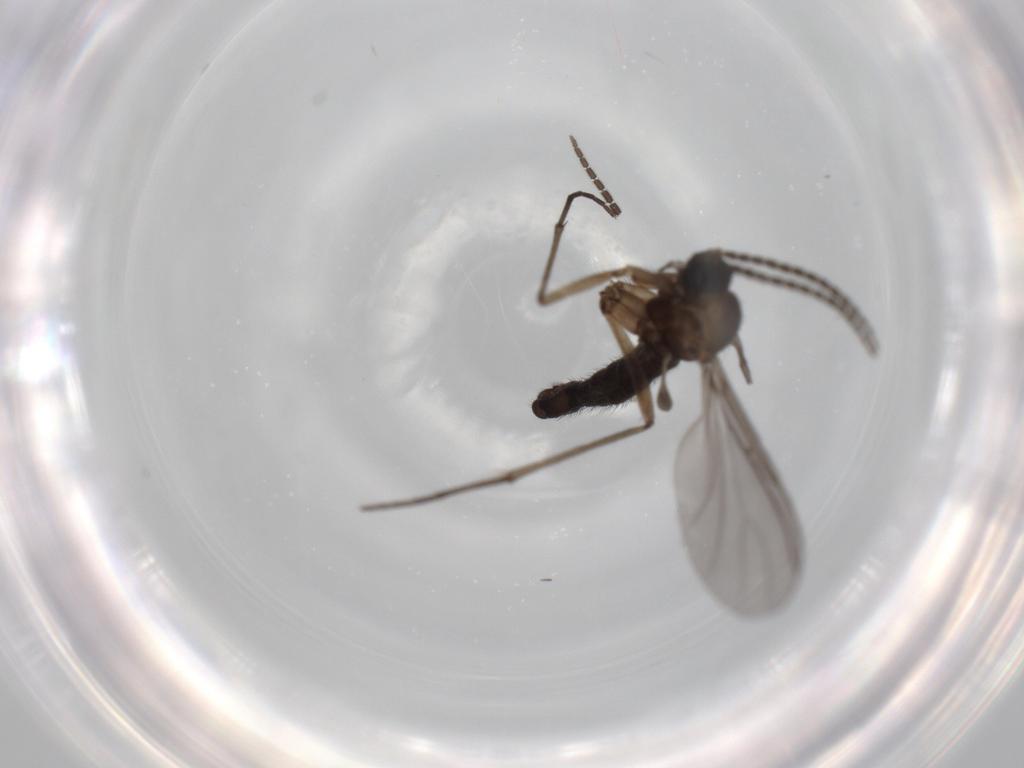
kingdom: Animalia
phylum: Arthropoda
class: Insecta
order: Diptera
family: Sciaridae
